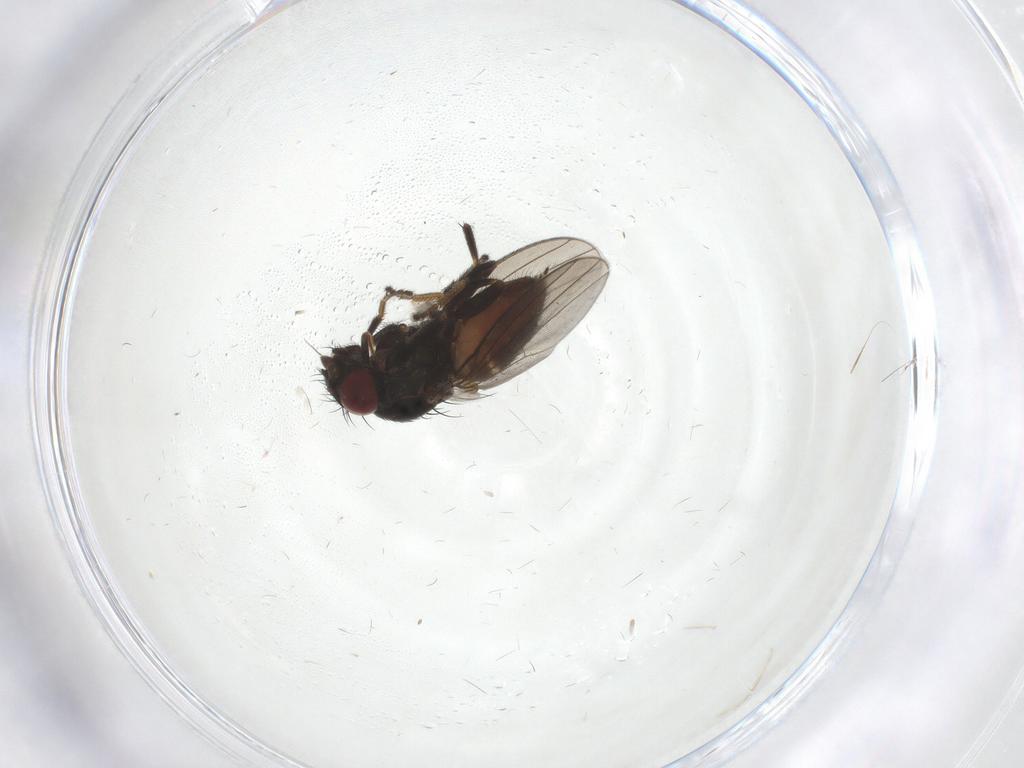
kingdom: Animalia
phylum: Arthropoda
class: Insecta
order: Diptera
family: Milichiidae
